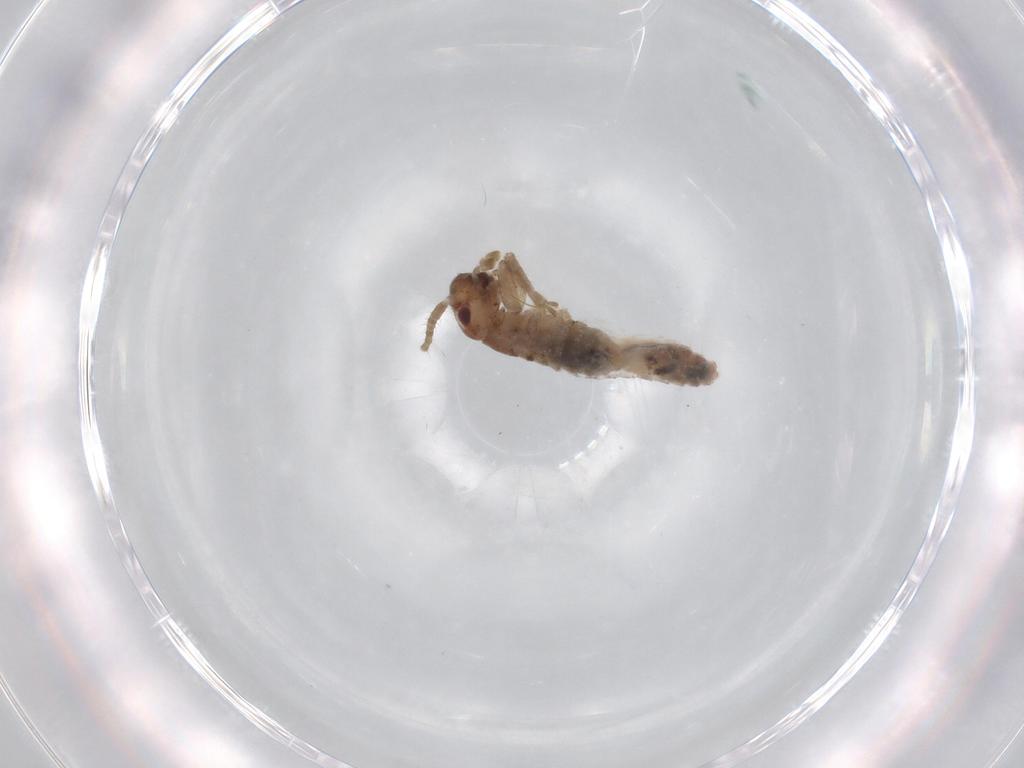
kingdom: Animalia
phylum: Arthropoda
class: Insecta
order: Orthoptera
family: Mogoplistidae
